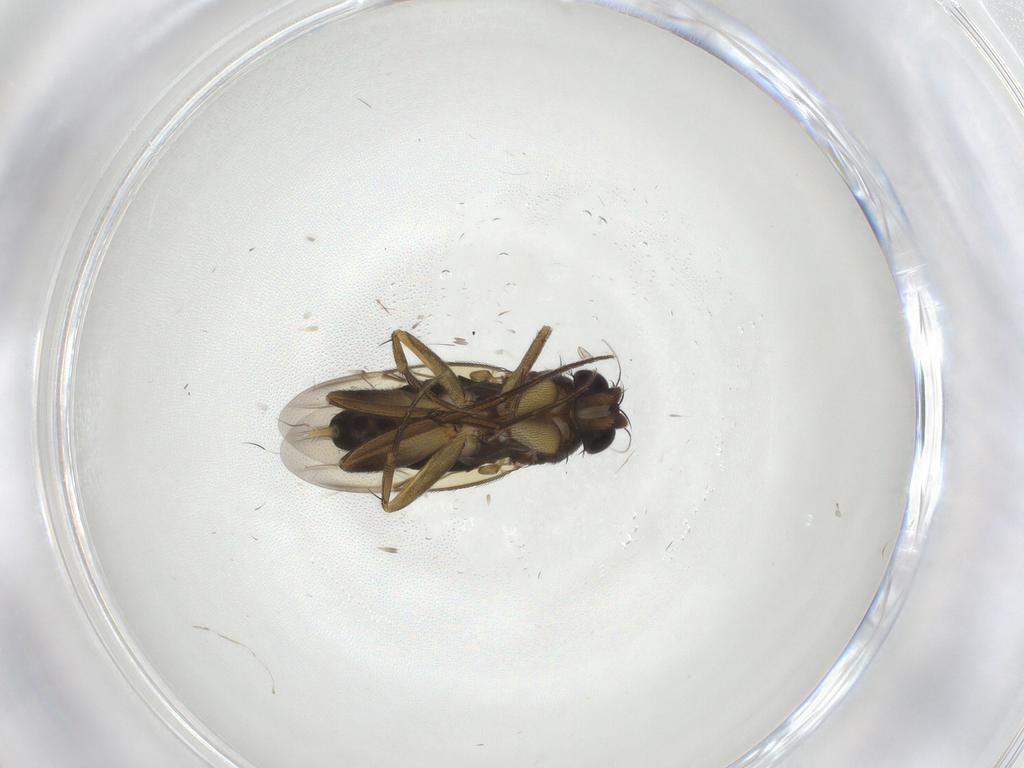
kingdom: Animalia
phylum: Arthropoda
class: Insecta
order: Diptera
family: Phoridae
